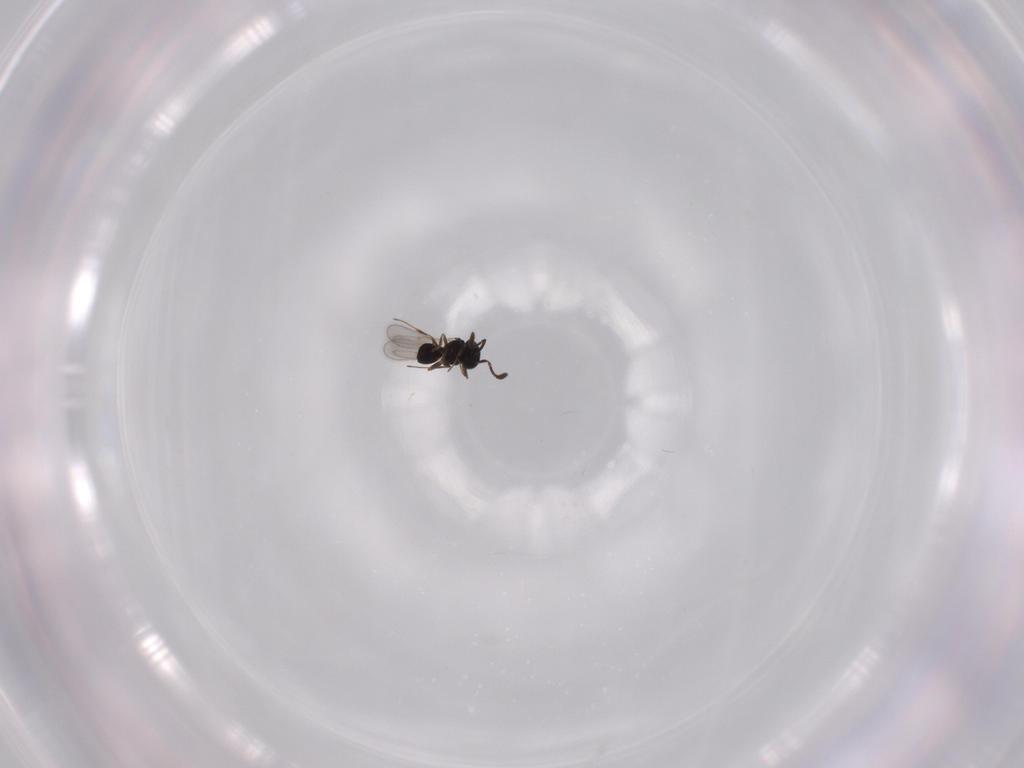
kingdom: Animalia
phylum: Arthropoda
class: Insecta
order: Hymenoptera
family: Scelionidae
